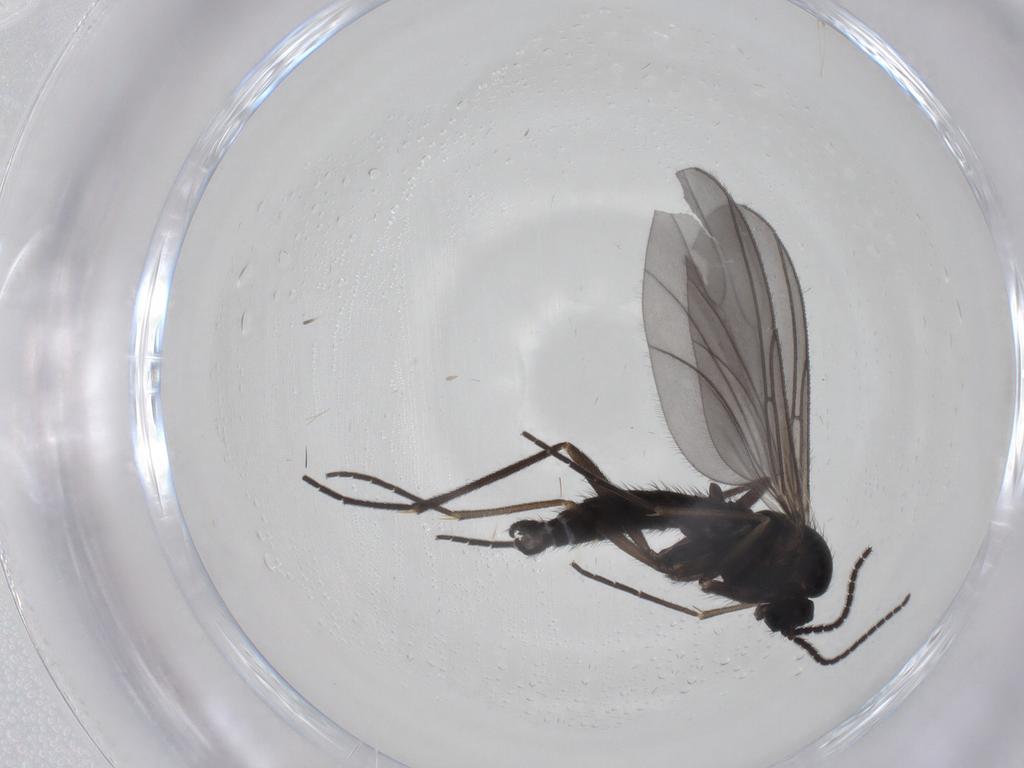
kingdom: Animalia
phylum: Arthropoda
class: Insecta
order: Diptera
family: Sciaridae
